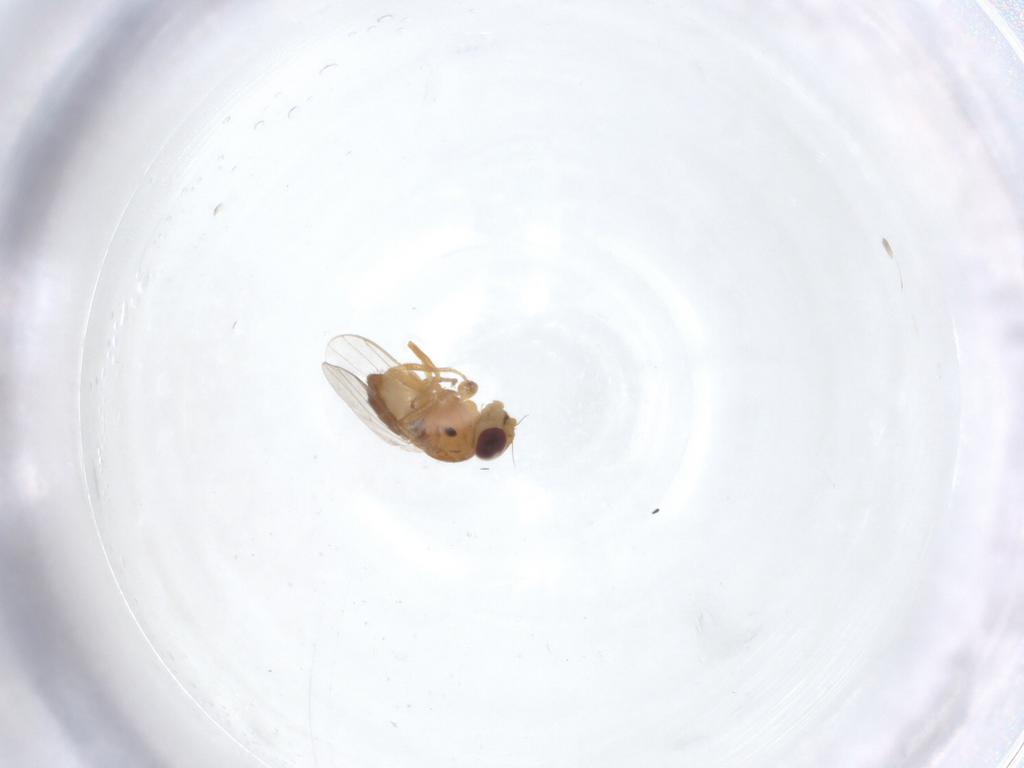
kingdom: Animalia
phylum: Arthropoda
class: Insecta
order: Diptera
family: Chloropidae
